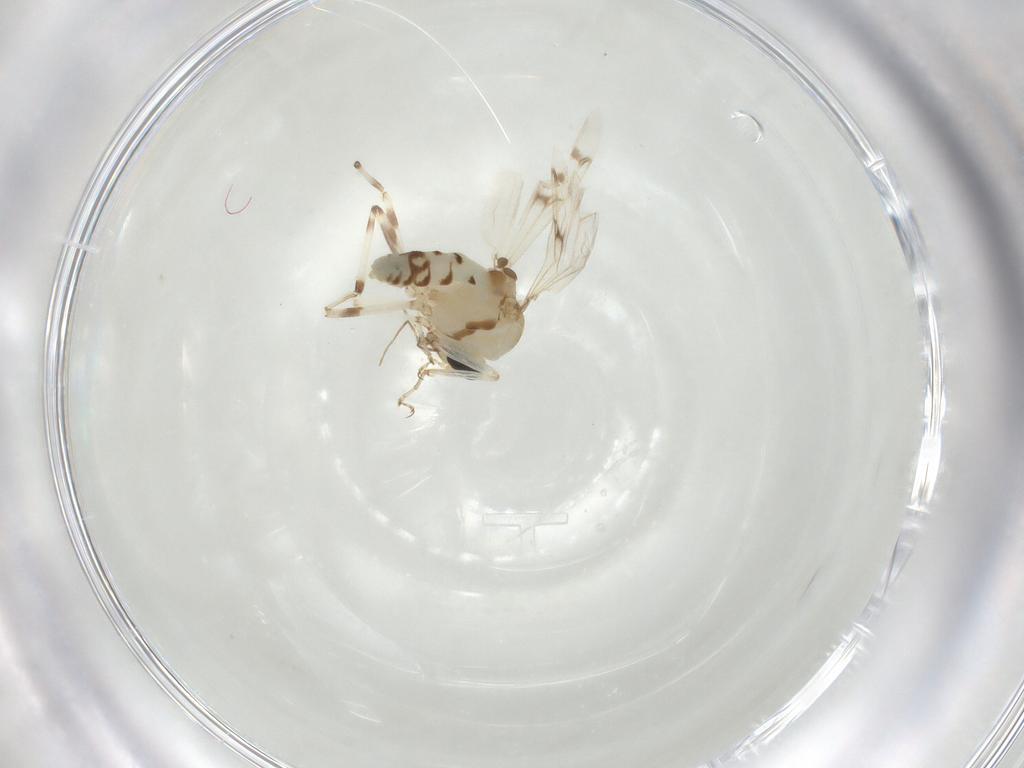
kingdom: Animalia
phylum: Arthropoda
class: Insecta
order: Diptera
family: Ceratopogonidae
